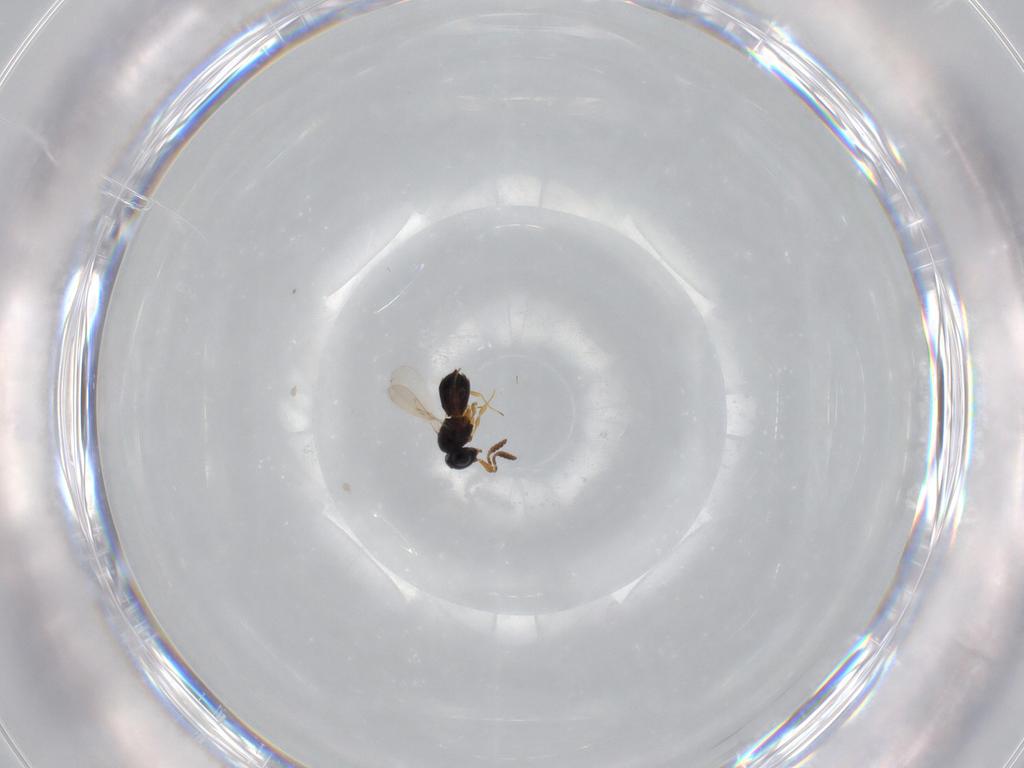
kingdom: Animalia
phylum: Arthropoda
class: Insecta
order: Hymenoptera
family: Scelionidae
